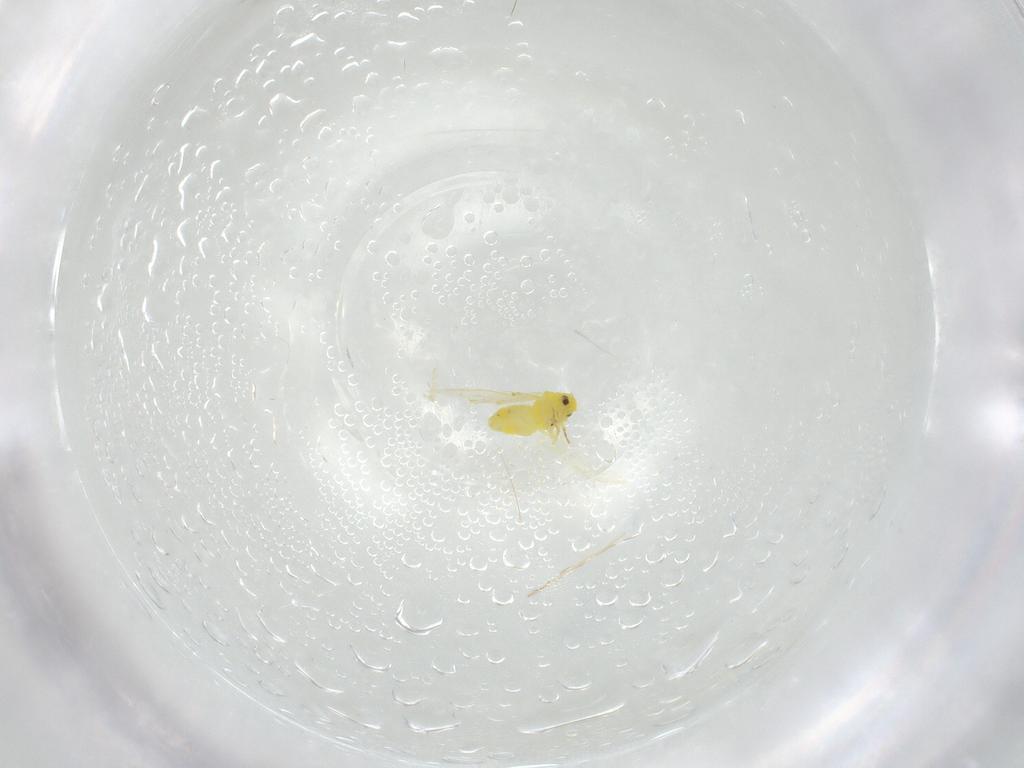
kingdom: Animalia
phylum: Arthropoda
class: Insecta
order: Hemiptera
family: Aleyrodidae
